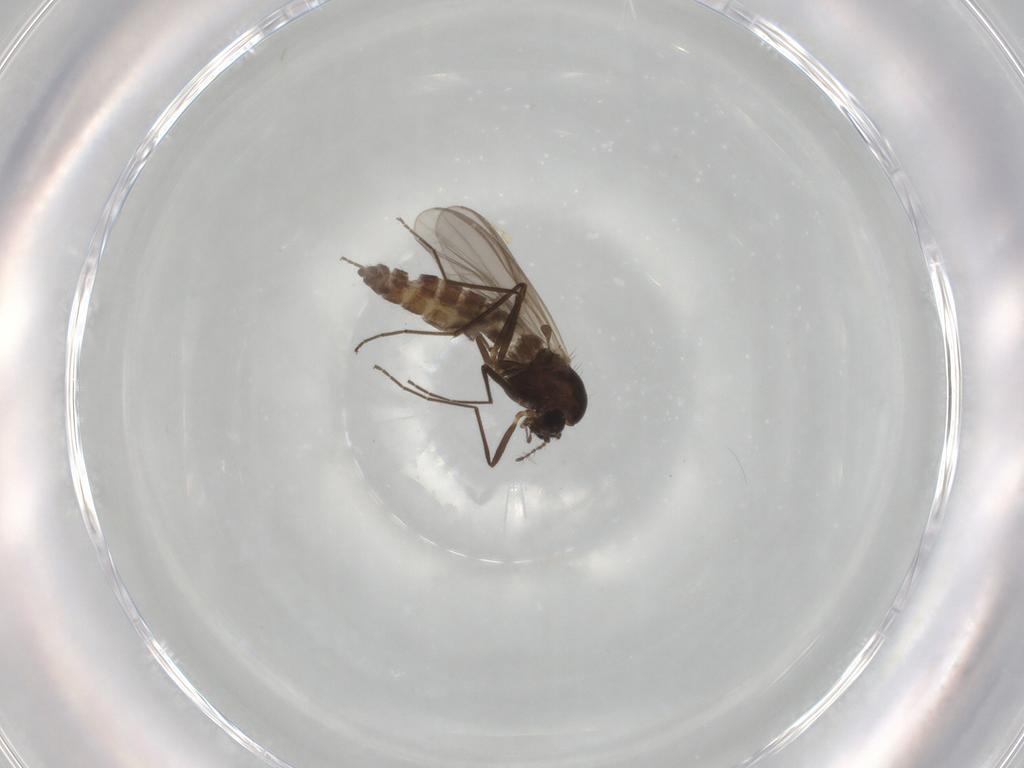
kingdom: Animalia
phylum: Arthropoda
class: Insecta
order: Diptera
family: Chironomidae
